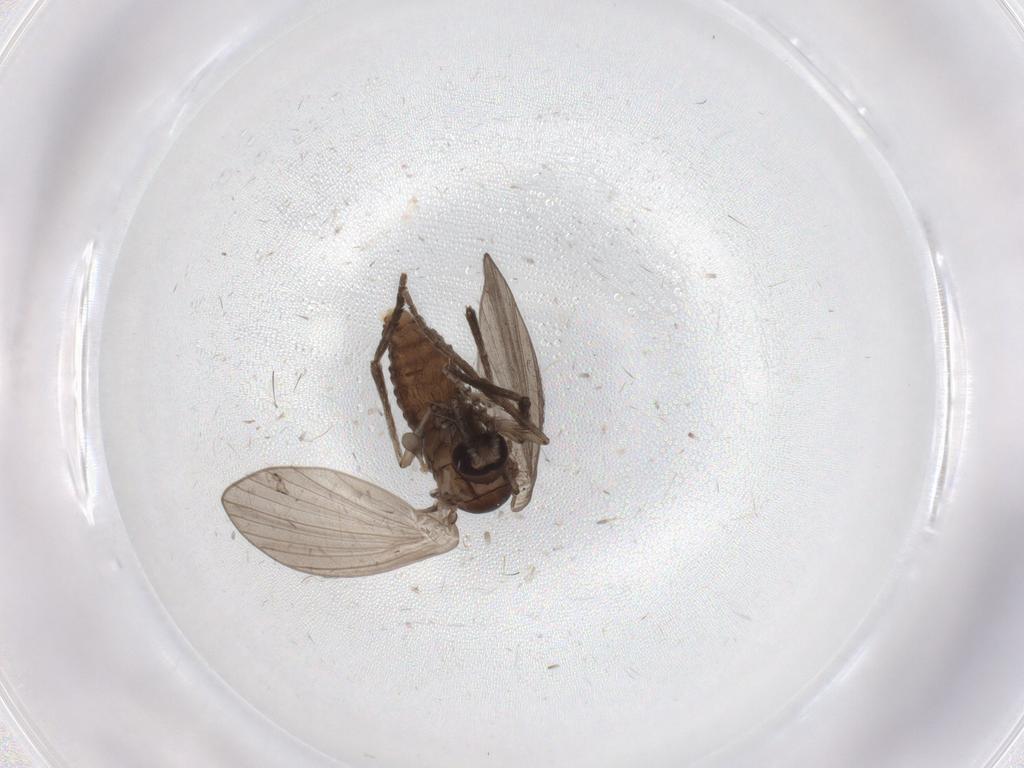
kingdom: Animalia
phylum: Arthropoda
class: Insecta
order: Diptera
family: Psychodidae
